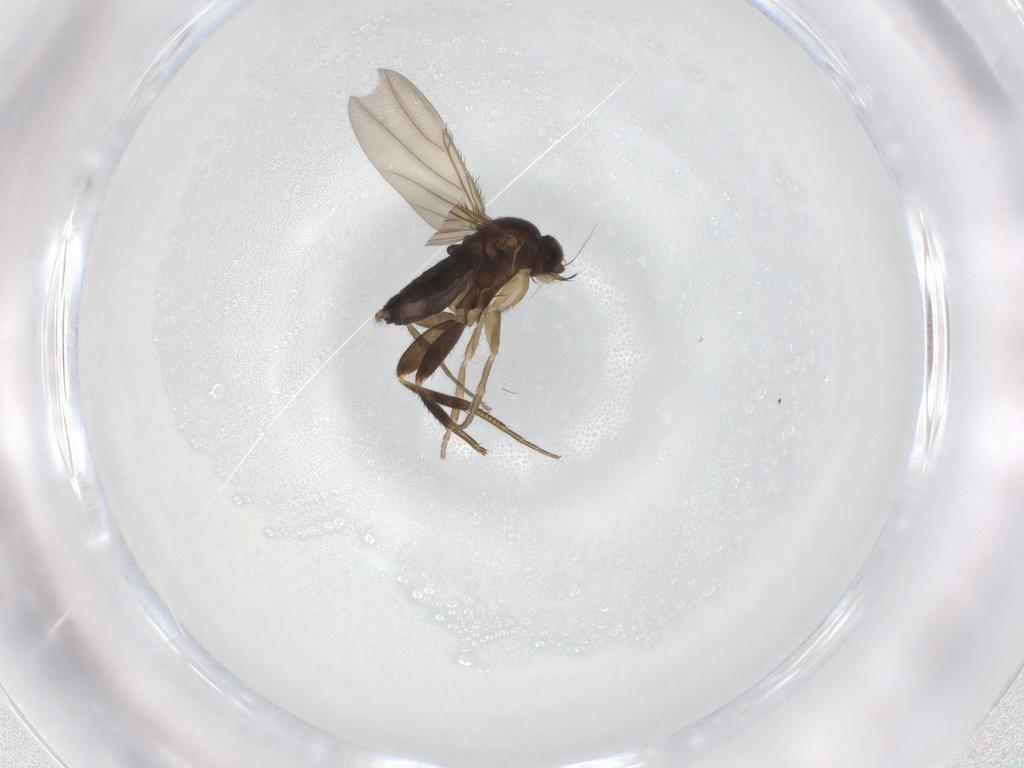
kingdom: Animalia
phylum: Arthropoda
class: Insecta
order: Diptera
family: Phoridae
